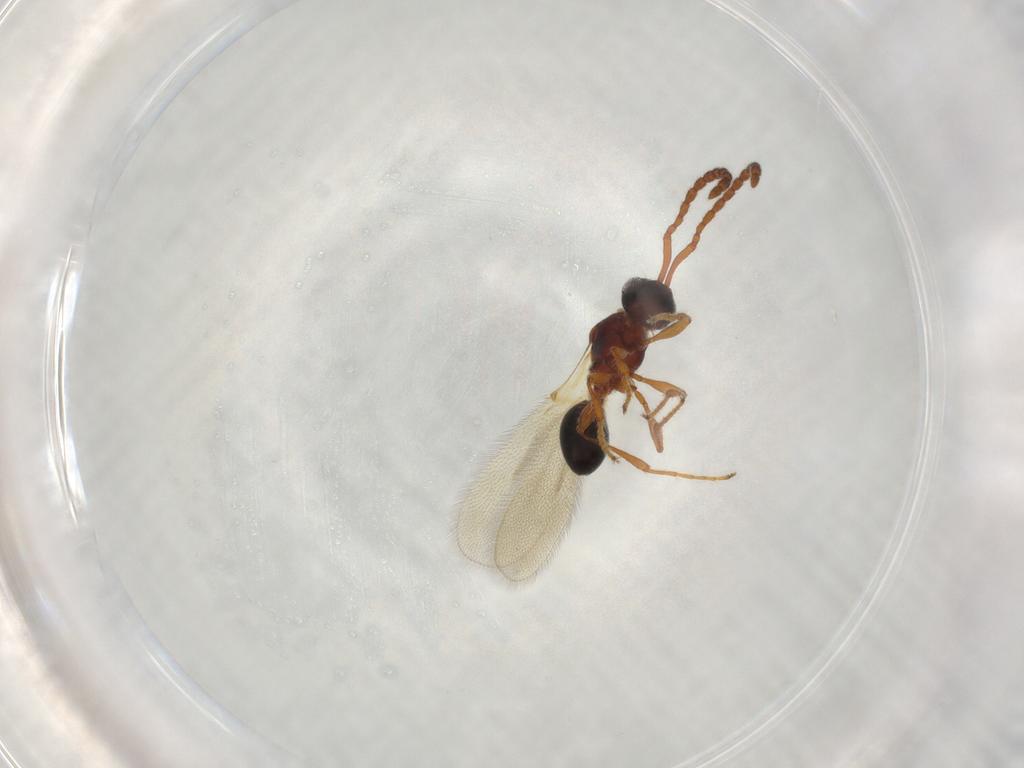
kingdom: Animalia
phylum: Arthropoda
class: Insecta
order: Hymenoptera
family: Diapriidae
